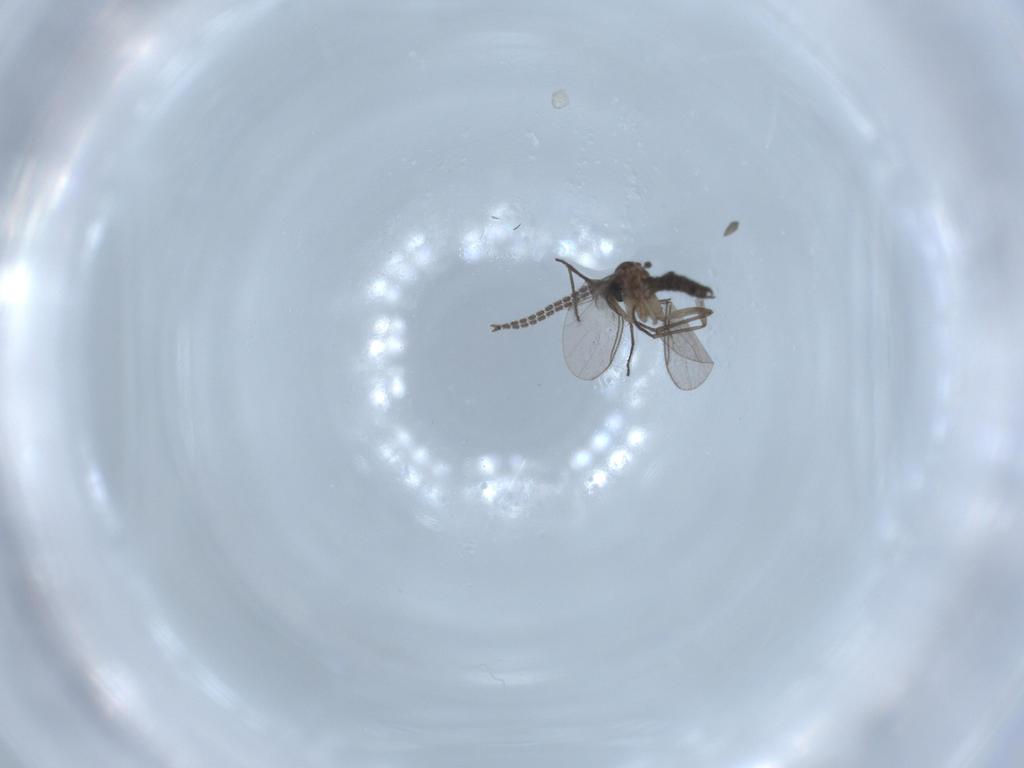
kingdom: Animalia
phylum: Arthropoda
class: Insecta
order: Diptera
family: Sciaridae
